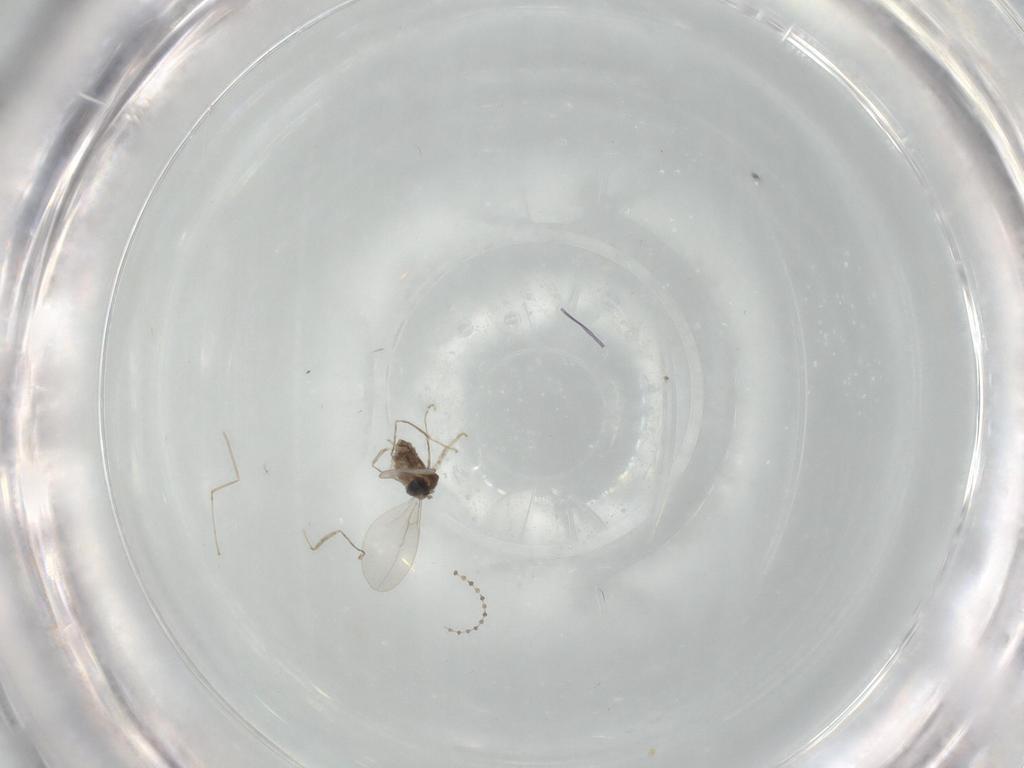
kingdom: Animalia
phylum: Arthropoda
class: Insecta
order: Diptera
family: Cecidomyiidae
